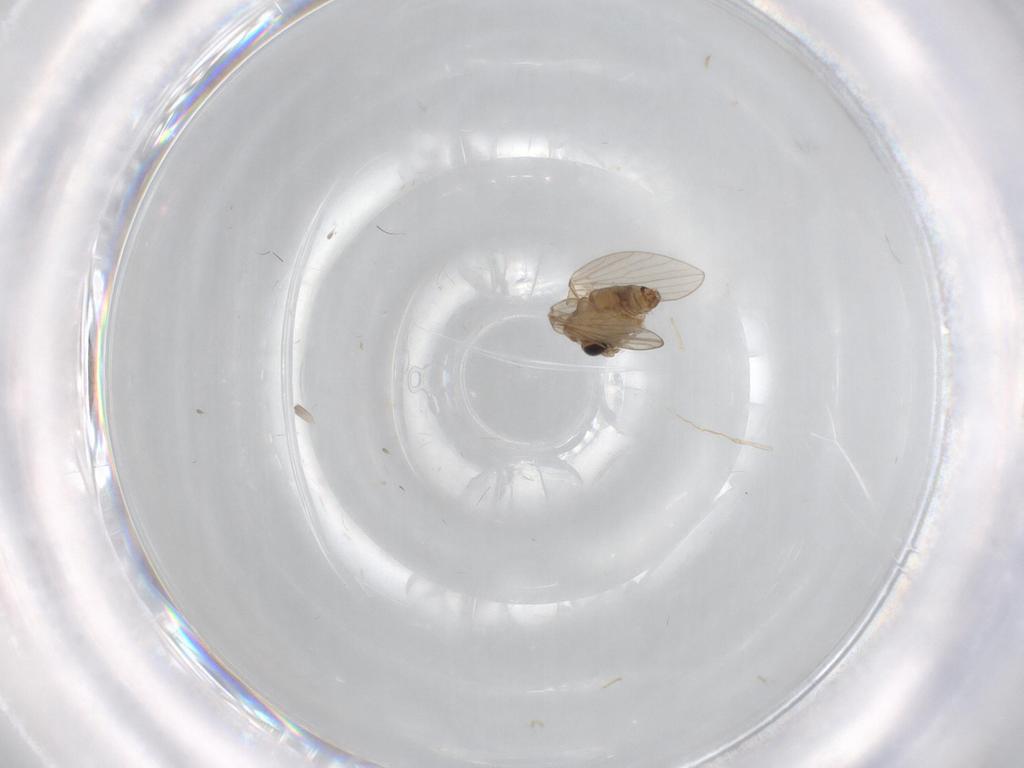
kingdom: Animalia
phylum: Arthropoda
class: Insecta
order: Diptera
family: Psychodidae
